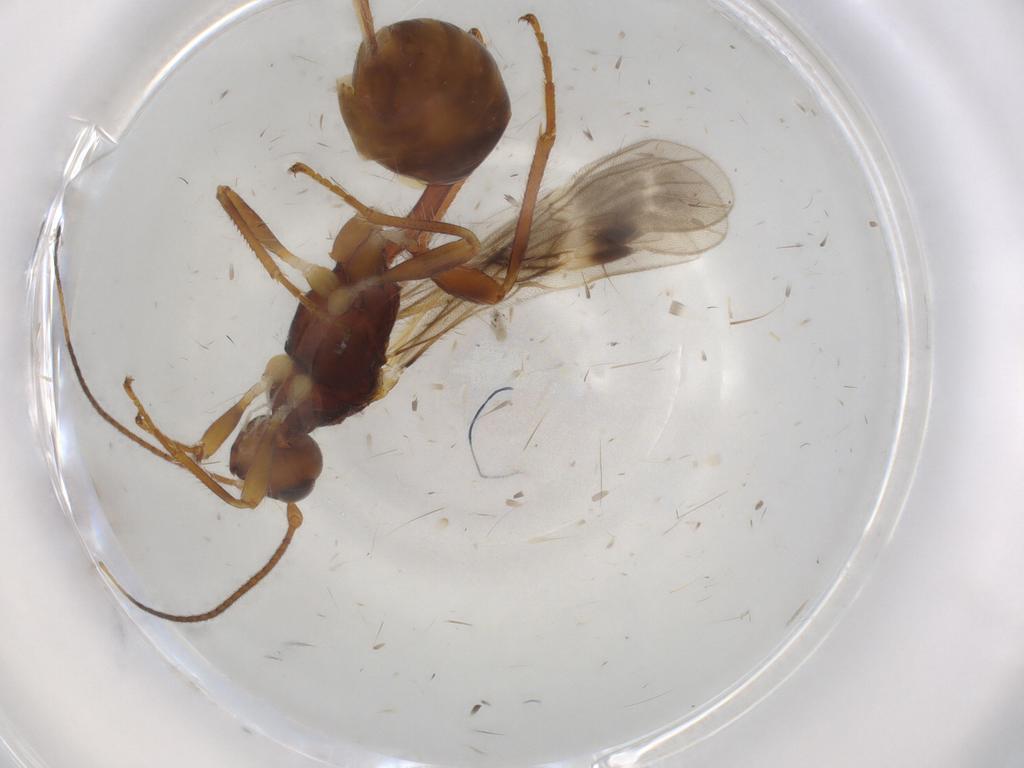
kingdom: Animalia
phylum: Arthropoda
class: Insecta
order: Hymenoptera
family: Braconidae
